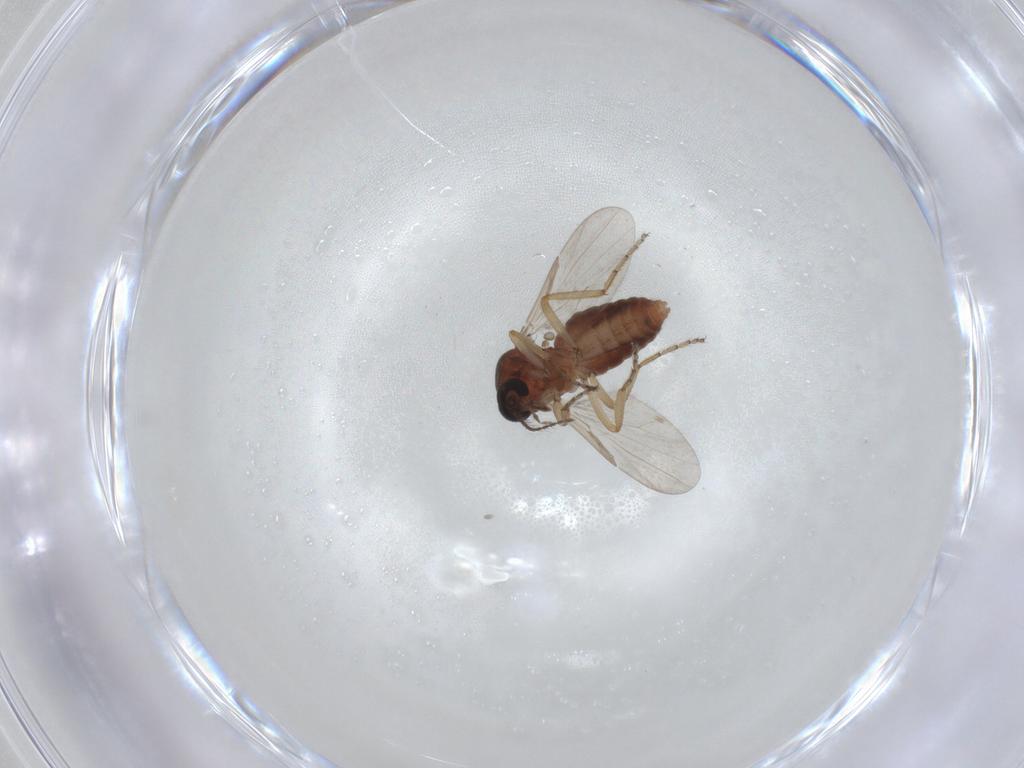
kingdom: Animalia
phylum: Arthropoda
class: Insecta
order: Diptera
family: Ceratopogonidae
